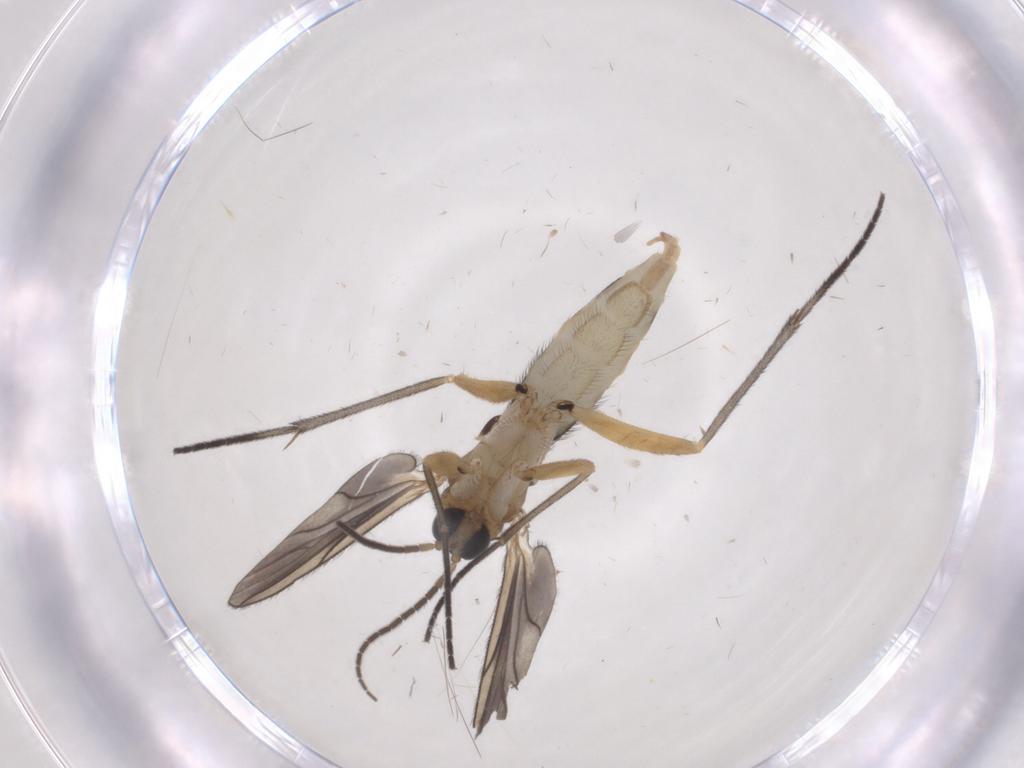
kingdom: Animalia
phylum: Arthropoda
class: Insecta
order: Diptera
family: Sciaridae
